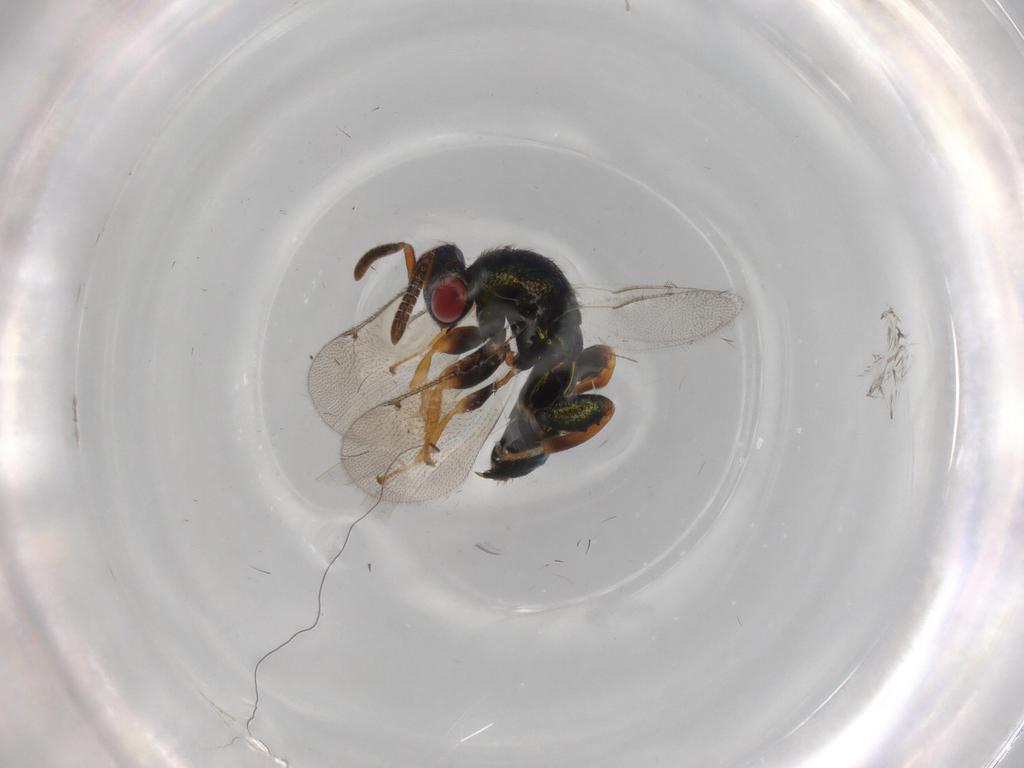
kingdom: Animalia
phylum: Arthropoda
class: Insecta
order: Hymenoptera
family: Torymidae
